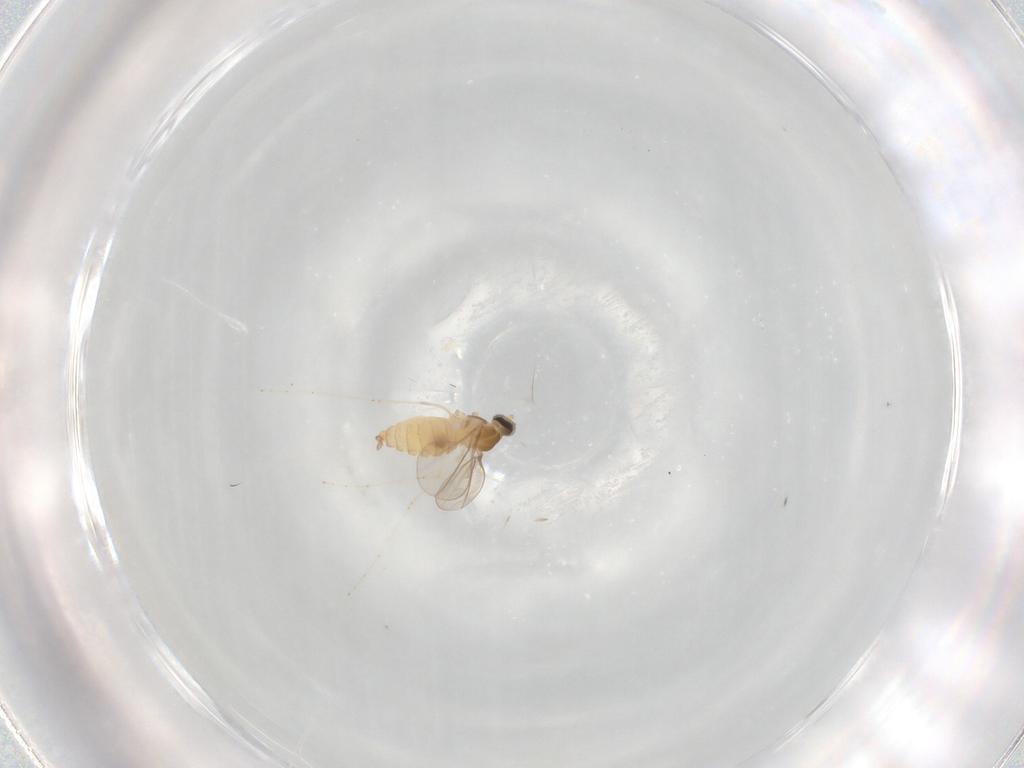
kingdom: Animalia
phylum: Arthropoda
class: Insecta
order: Diptera
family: Cecidomyiidae
